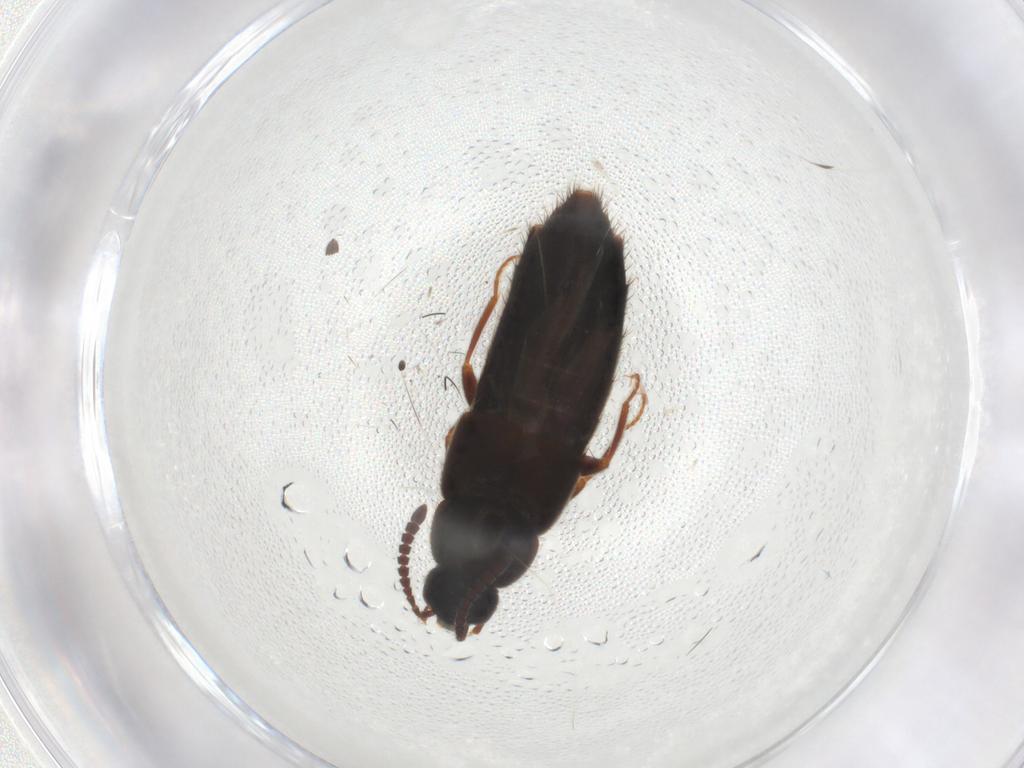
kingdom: Animalia
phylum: Arthropoda
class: Insecta
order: Coleoptera
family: Staphylinidae
